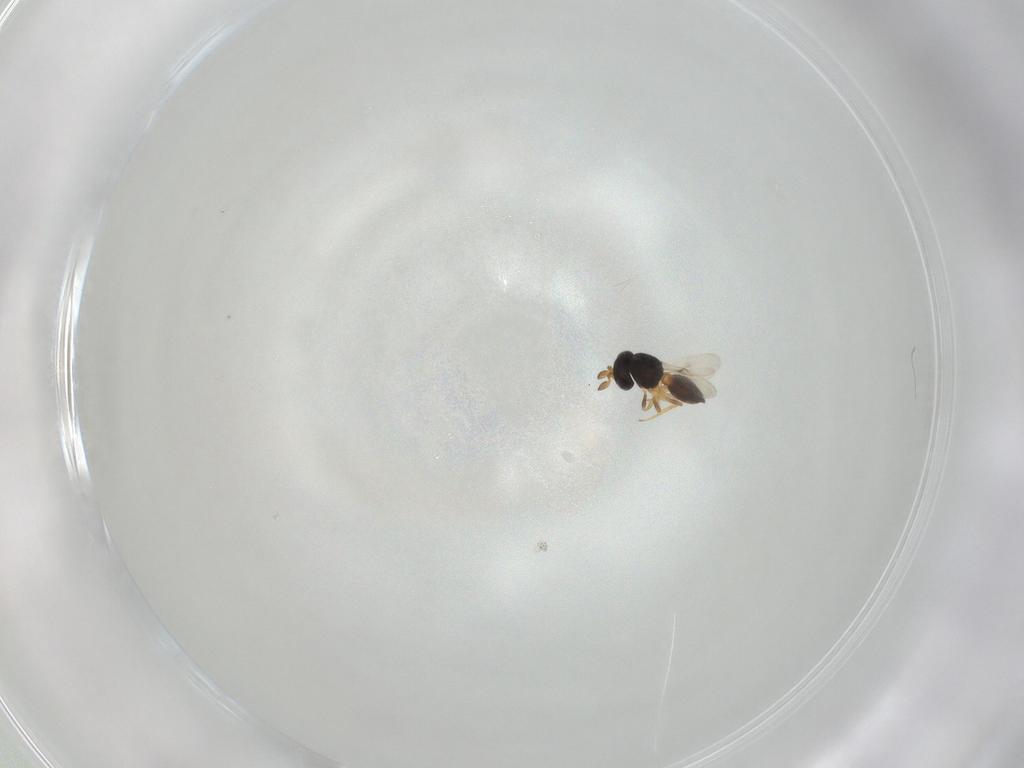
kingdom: Animalia
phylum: Arthropoda
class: Insecta
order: Hymenoptera
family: Scelionidae
